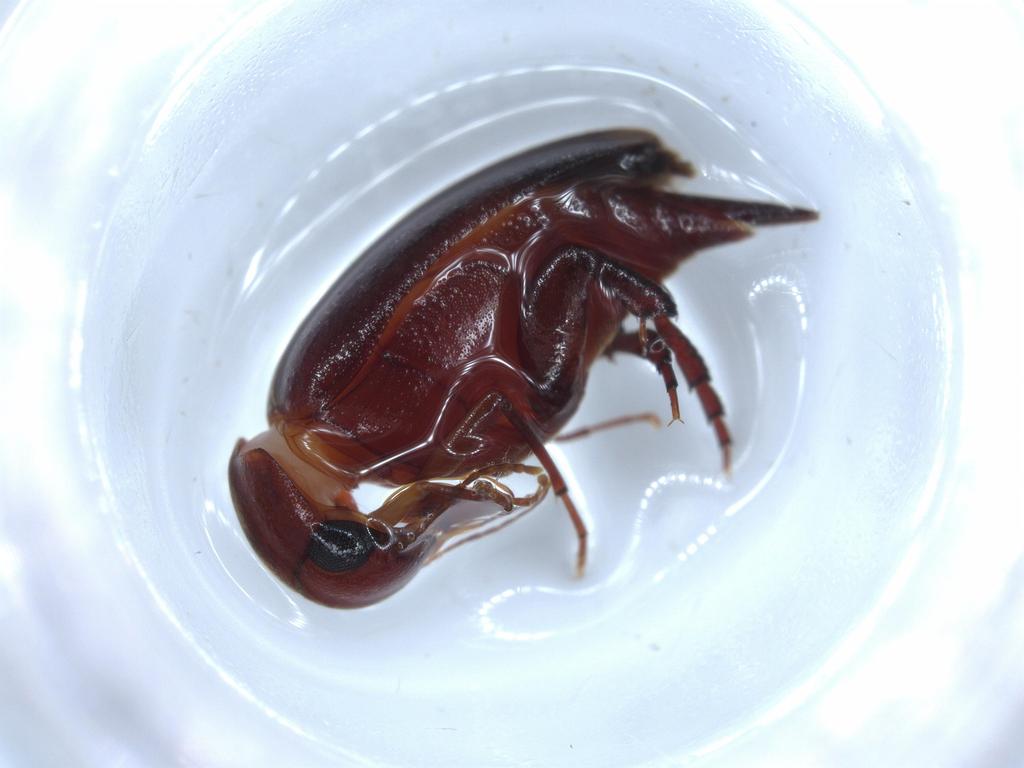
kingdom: Animalia
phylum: Arthropoda
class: Insecta
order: Coleoptera
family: Mordellidae
